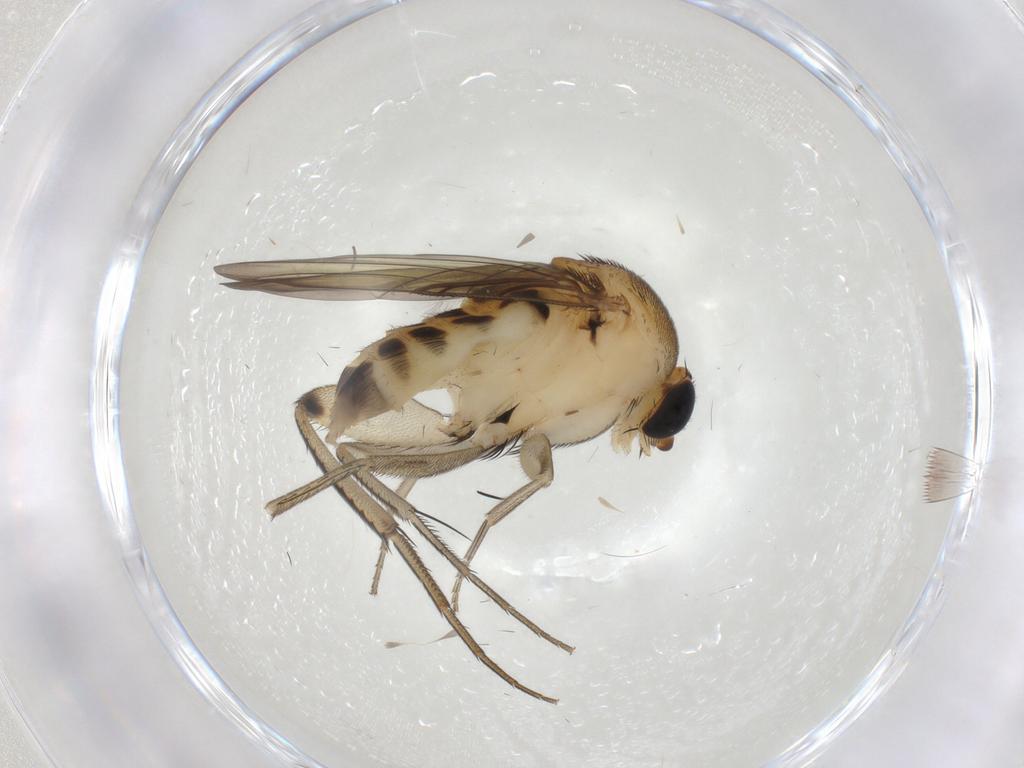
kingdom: Animalia
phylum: Arthropoda
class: Insecta
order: Diptera
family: Phoridae
